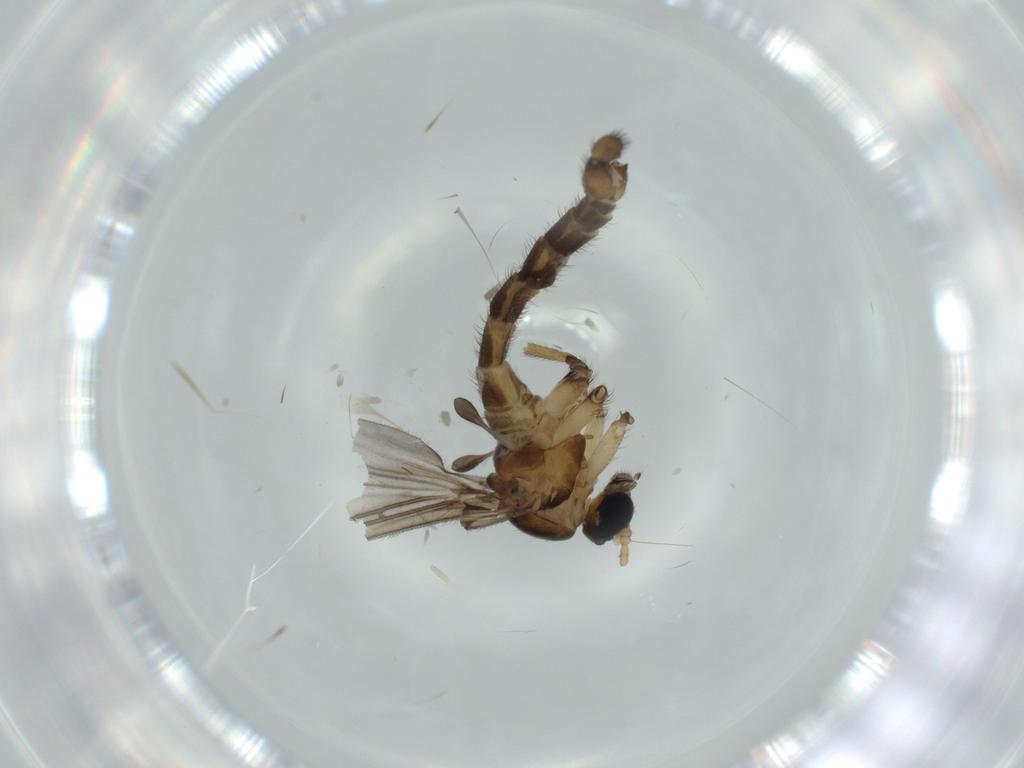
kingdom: Animalia
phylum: Arthropoda
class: Insecta
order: Diptera
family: Sciaridae
